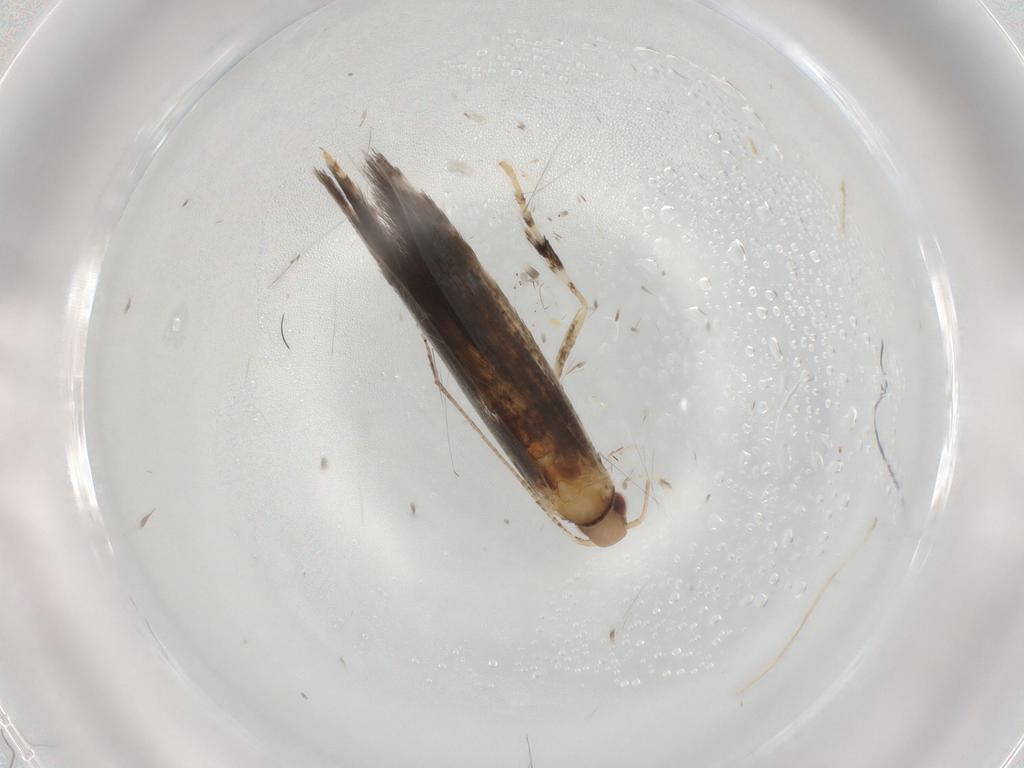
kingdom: Animalia
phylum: Arthropoda
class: Insecta
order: Lepidoptera
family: Gracillariidae
